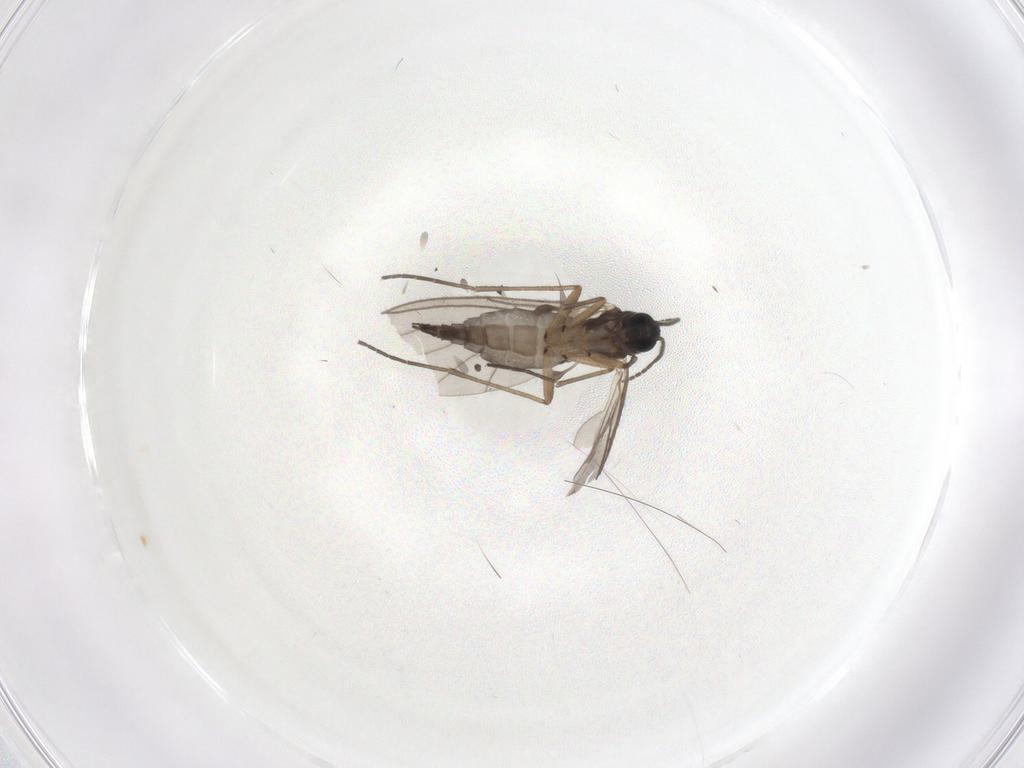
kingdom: Animalia
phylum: Arthropoda
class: Insecta
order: Diptera
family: Sciaridae
